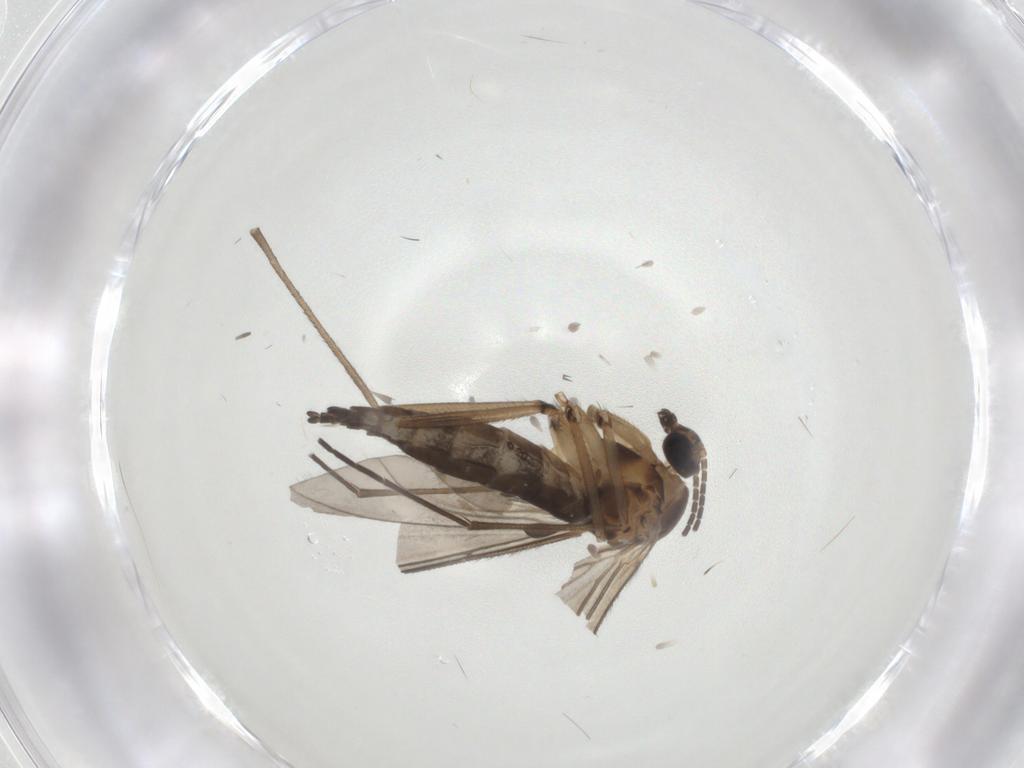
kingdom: Animalia
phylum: Arthropoda
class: Insecta
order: Diptera
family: Sciaridae
